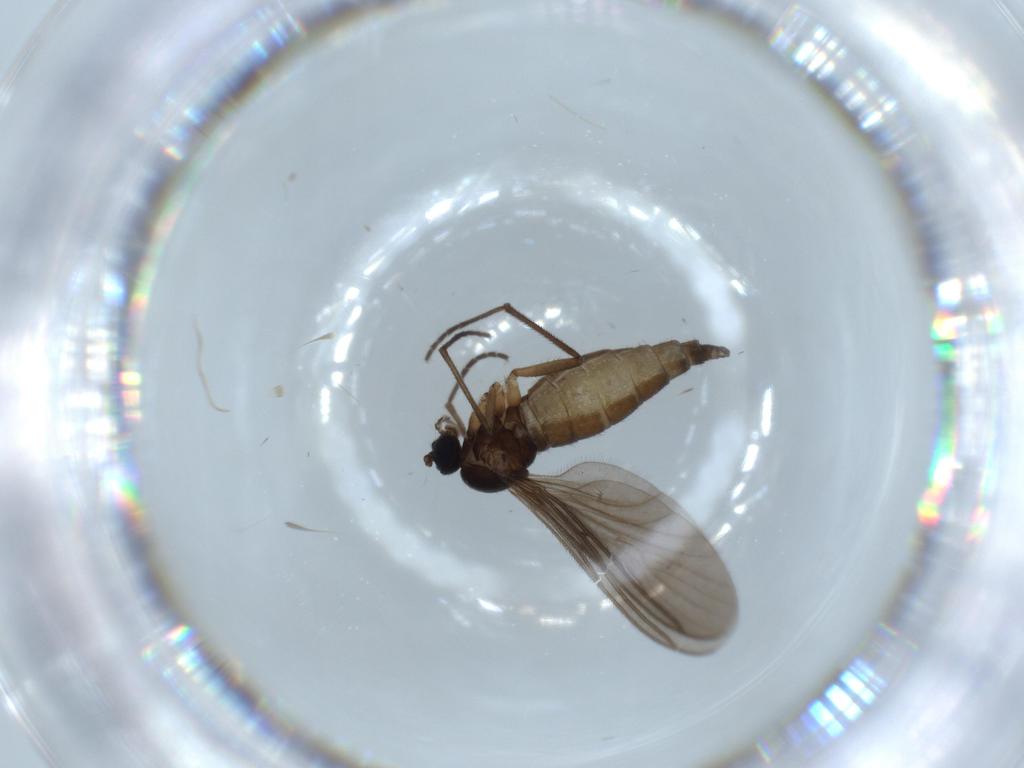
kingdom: Animalia
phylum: Arthropoda
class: Insecta
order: Diptera
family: Sciaridae
